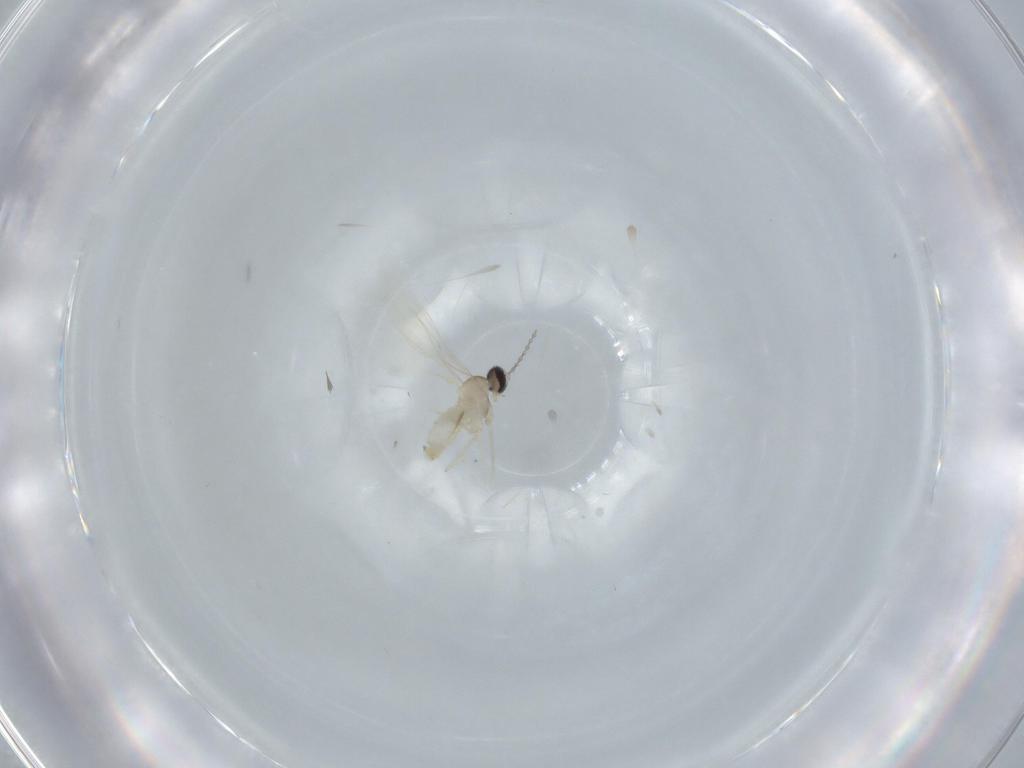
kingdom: Animalia
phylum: Arthropoda
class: Insecta
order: Diptera
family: Cecidomyiidae
